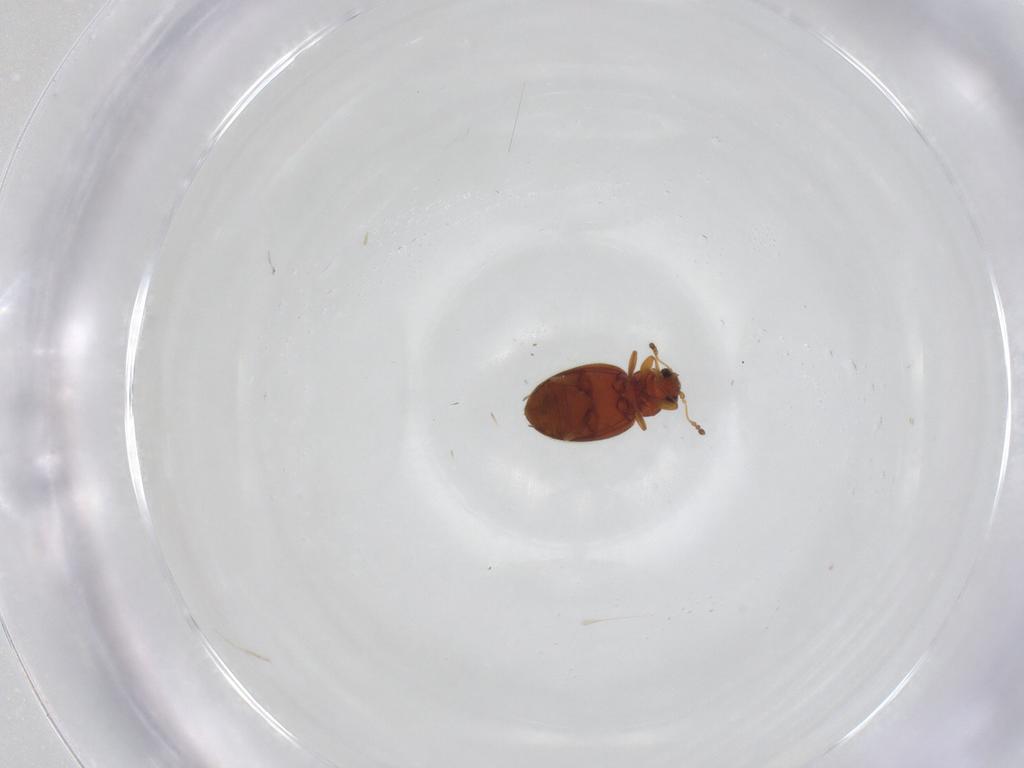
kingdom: Animalia
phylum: Arthropoda
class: Insecta
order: Coleoptera
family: Latridiidae
